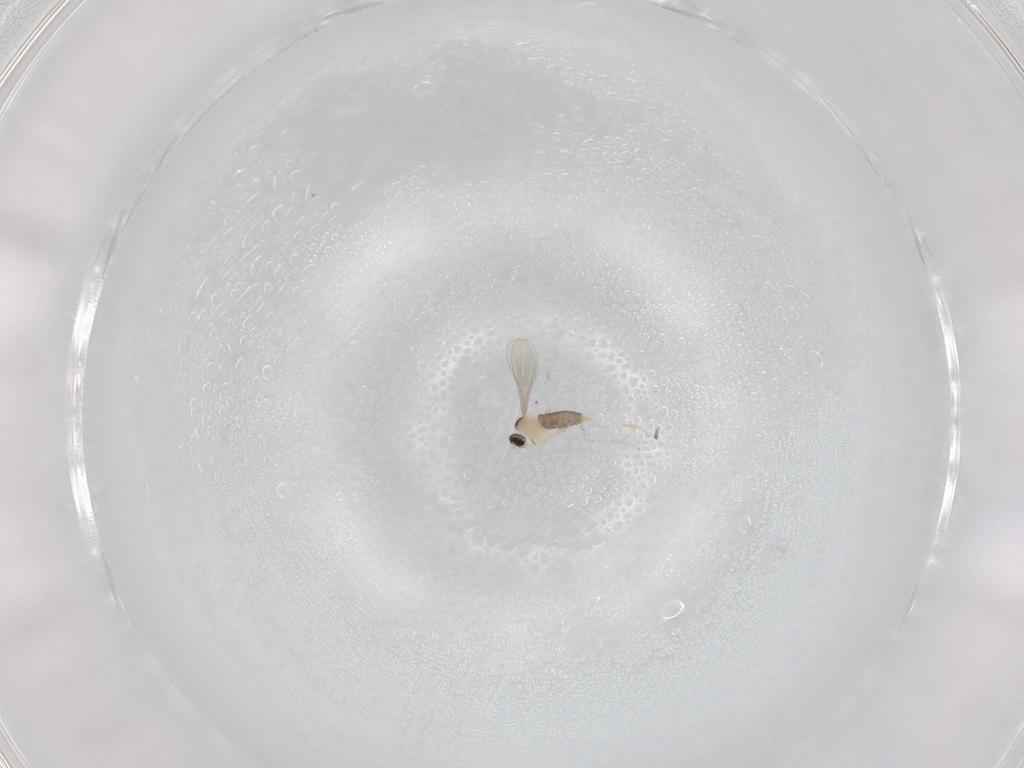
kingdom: Animalia
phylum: Arthropoda
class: Insecta
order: Diptera
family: Cecidomyiidae
